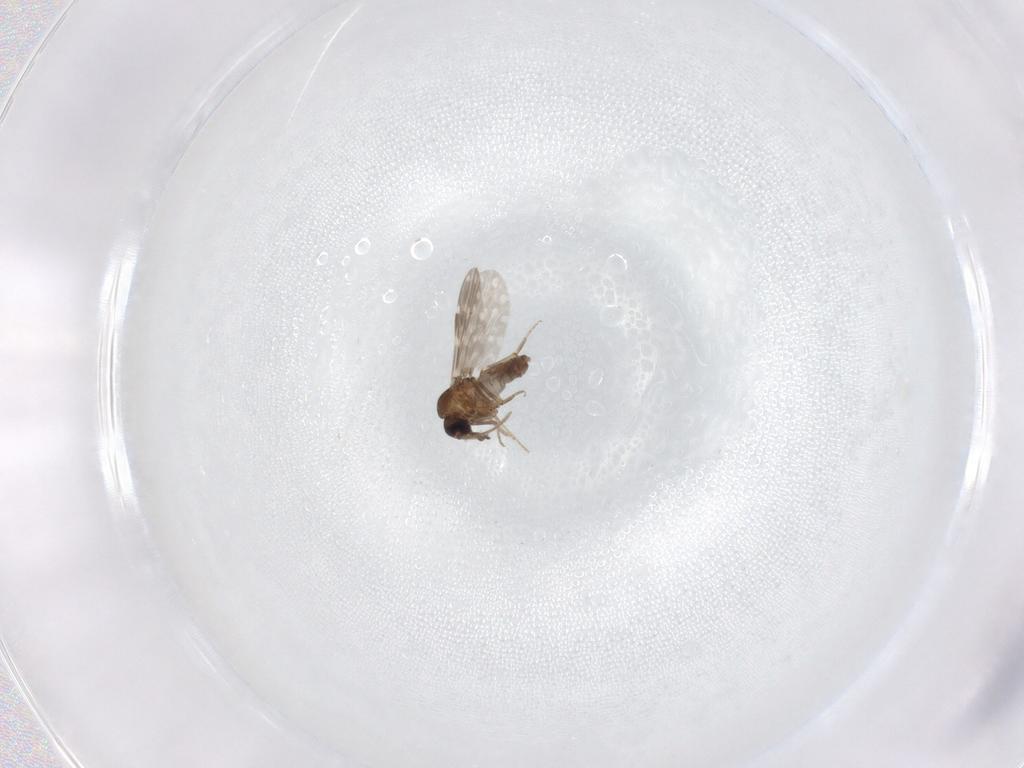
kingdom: Animalia
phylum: Arthropoda
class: Insecta
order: Diptera
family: Ceratopogonidae
